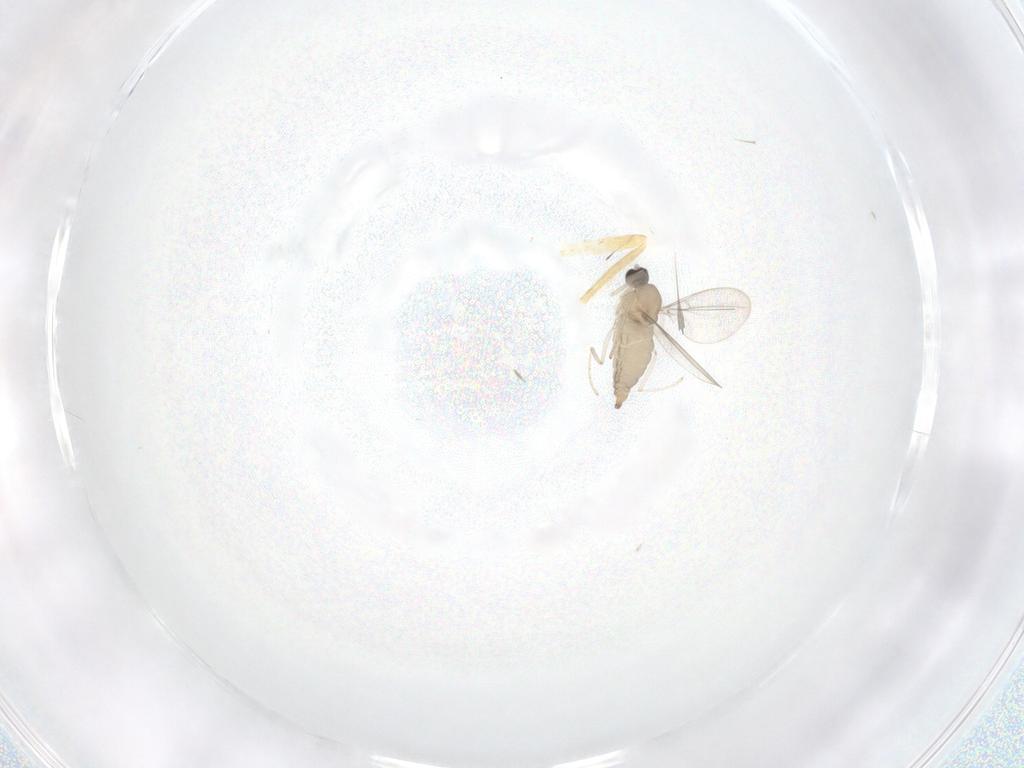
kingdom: Animalia
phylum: Arthropoda
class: Insecta
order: Diptera
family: Cecidomyiidae
